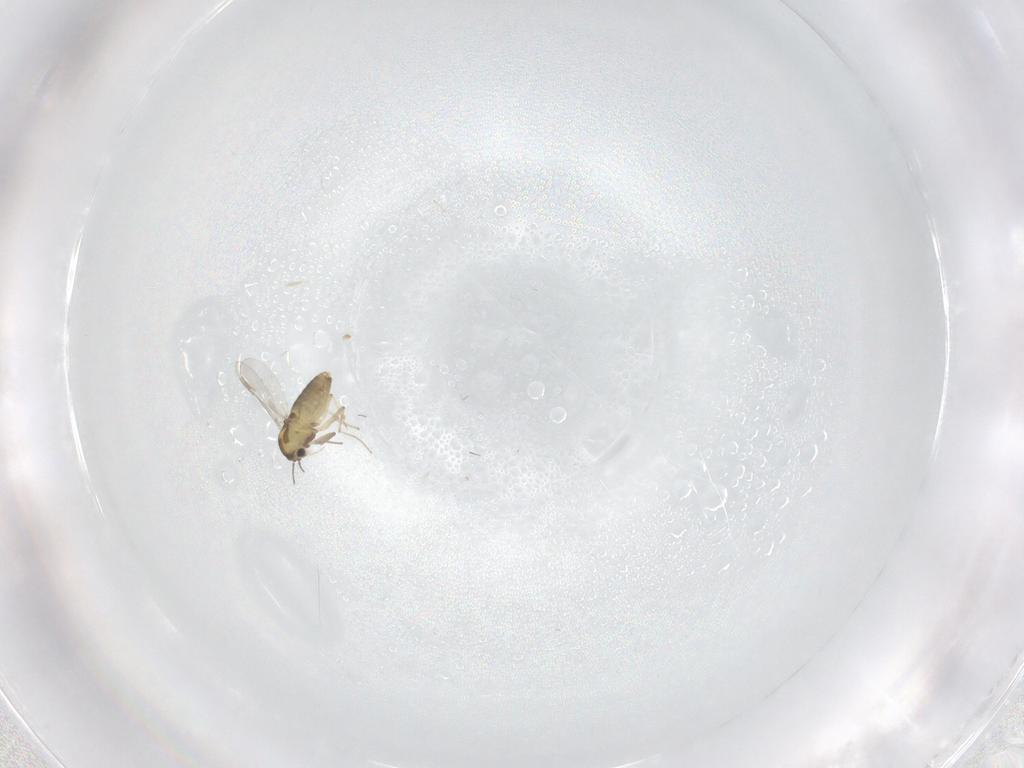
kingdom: Animalia
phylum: Arthropoda
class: Insecta
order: Diptera
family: Chironomidae
